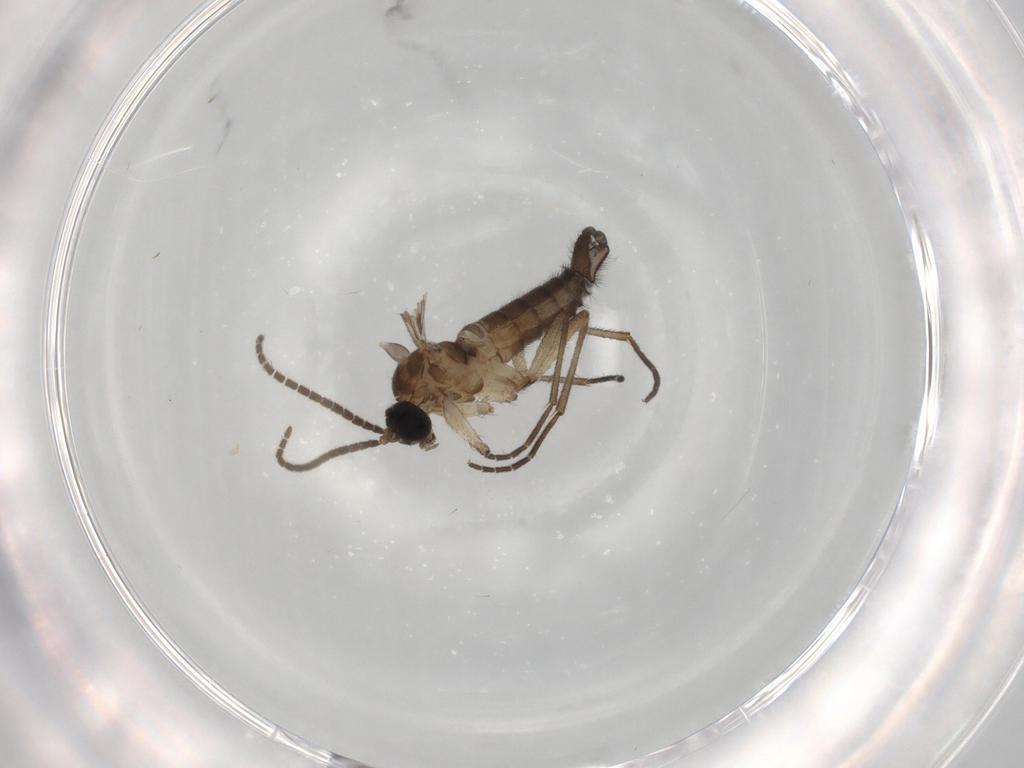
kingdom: Animalia
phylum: Arthropoda
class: Insecta
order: Diptera
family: Sciaridae
